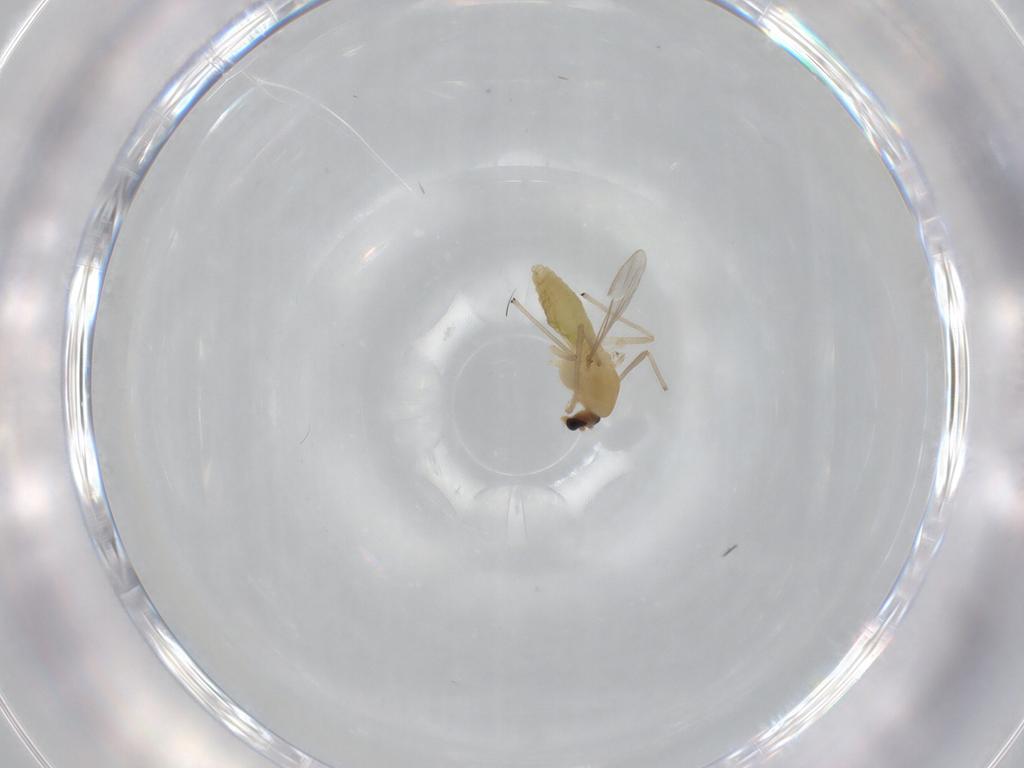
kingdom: Animalia
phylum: Arthropoda
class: Insecta
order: Diptera
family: Chironomidae
